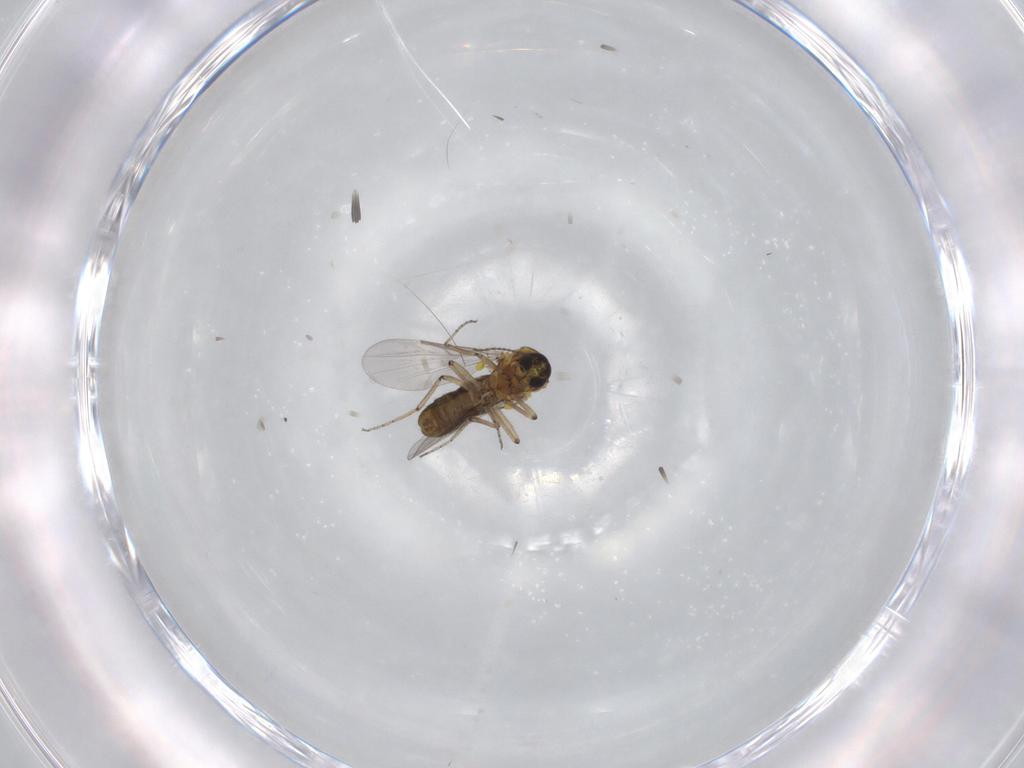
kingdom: Animalia
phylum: Arthropoda
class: Insecta
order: Diptera
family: Ceratopogonidae
